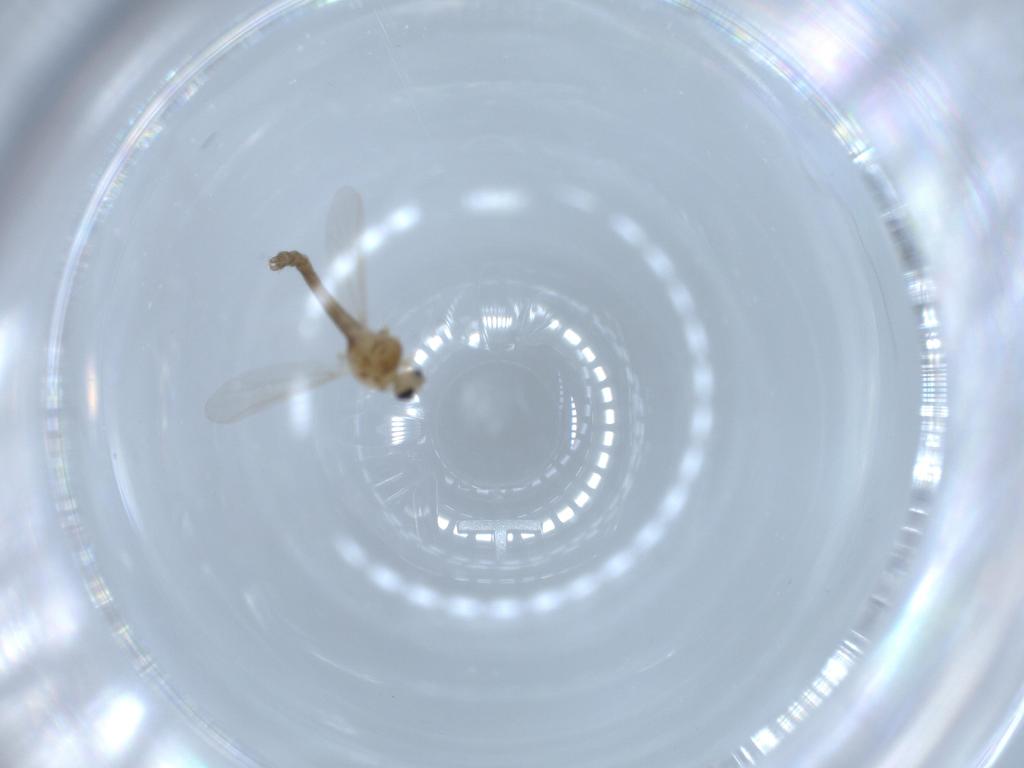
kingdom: Animalia
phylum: Arthropoda
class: Insecta
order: Diptera
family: Chironomidae
